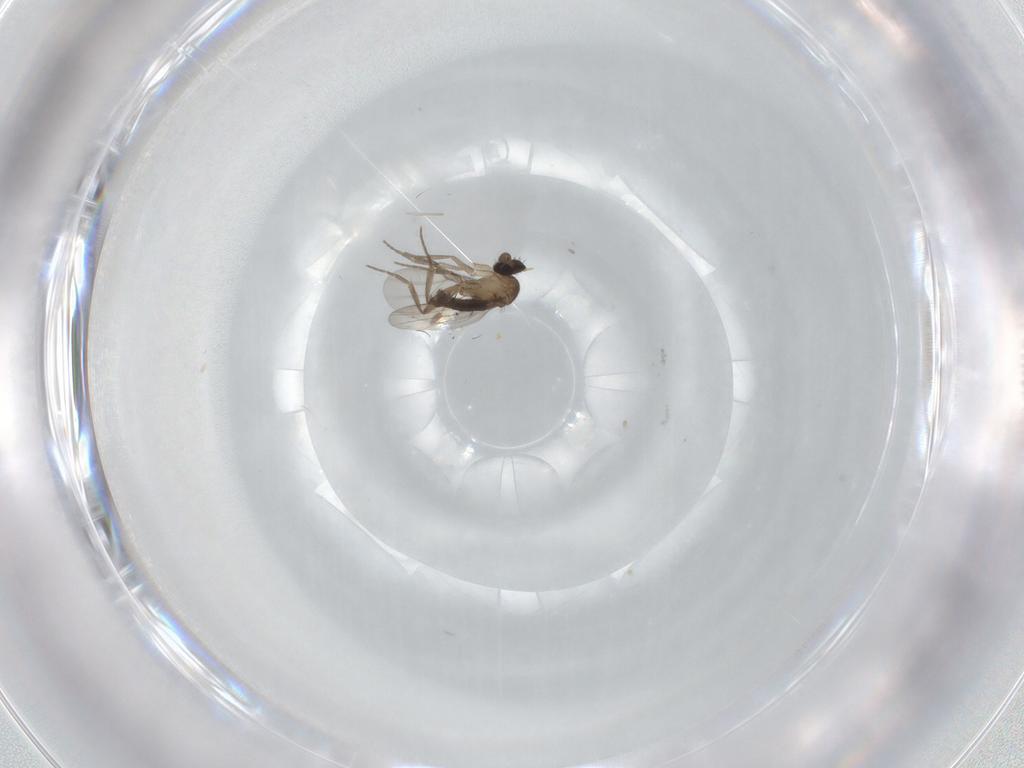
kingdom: Animalia
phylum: Arthropoda
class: Insecta
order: Diptera
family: Phoridae
